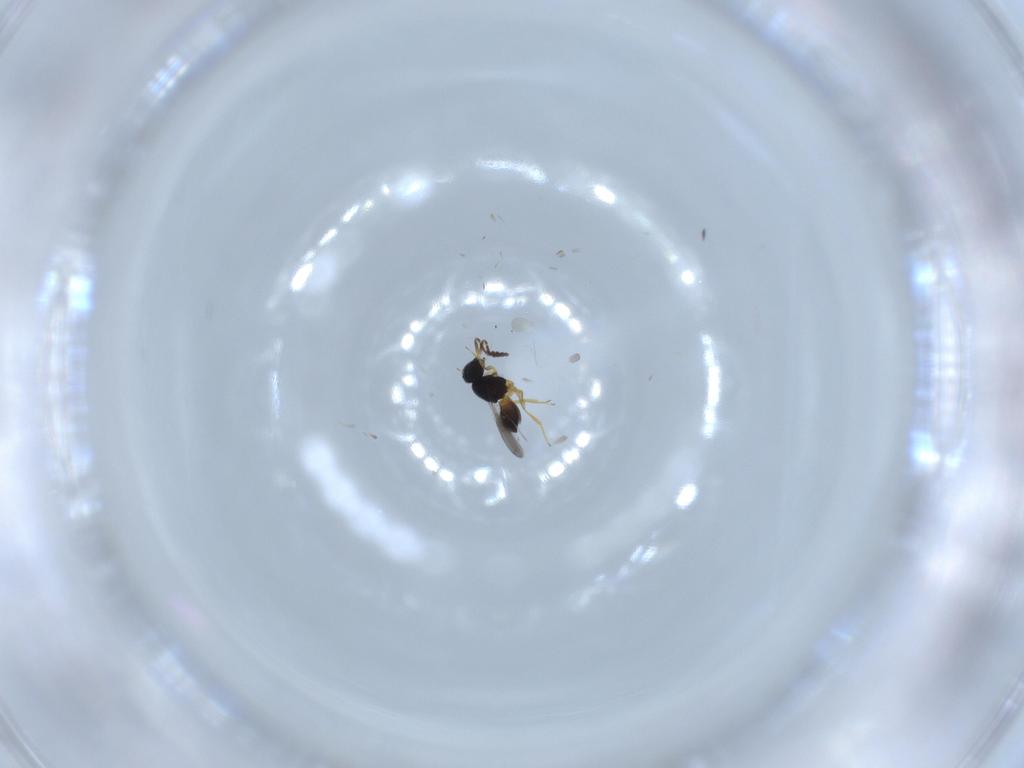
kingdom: Animalia
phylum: Arthropoda
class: Insecta
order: Hymenoptera
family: Scelionidae
